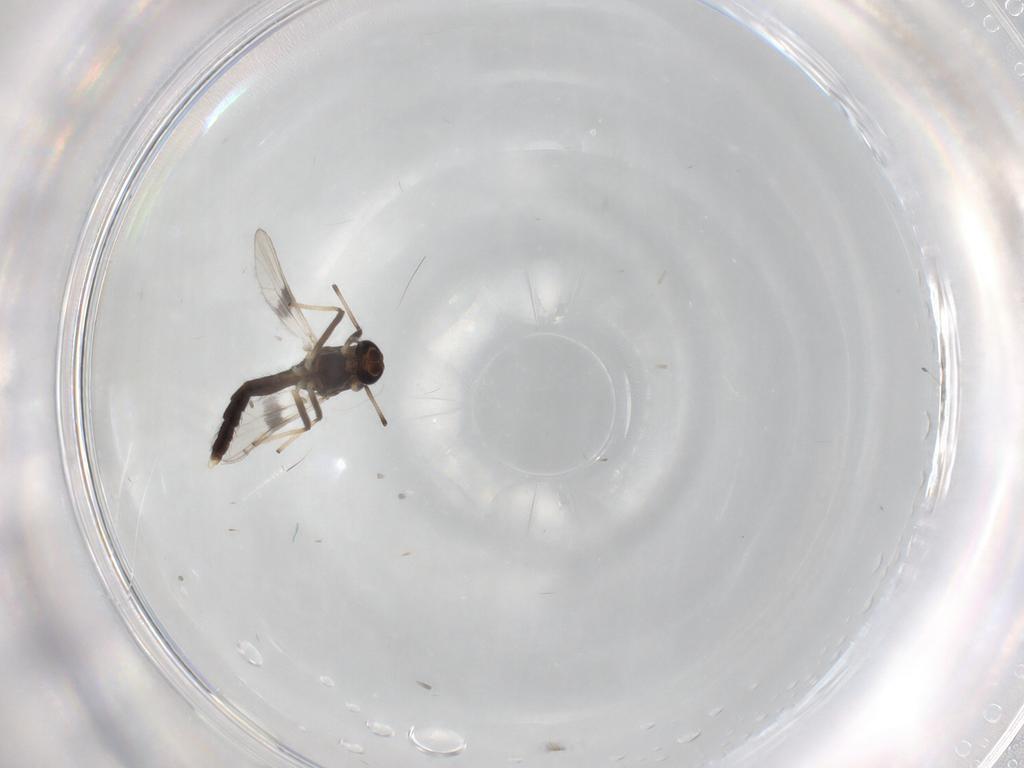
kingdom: Animalia
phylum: Arthropoda
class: Insecta
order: Diptera
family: Chironomidae
